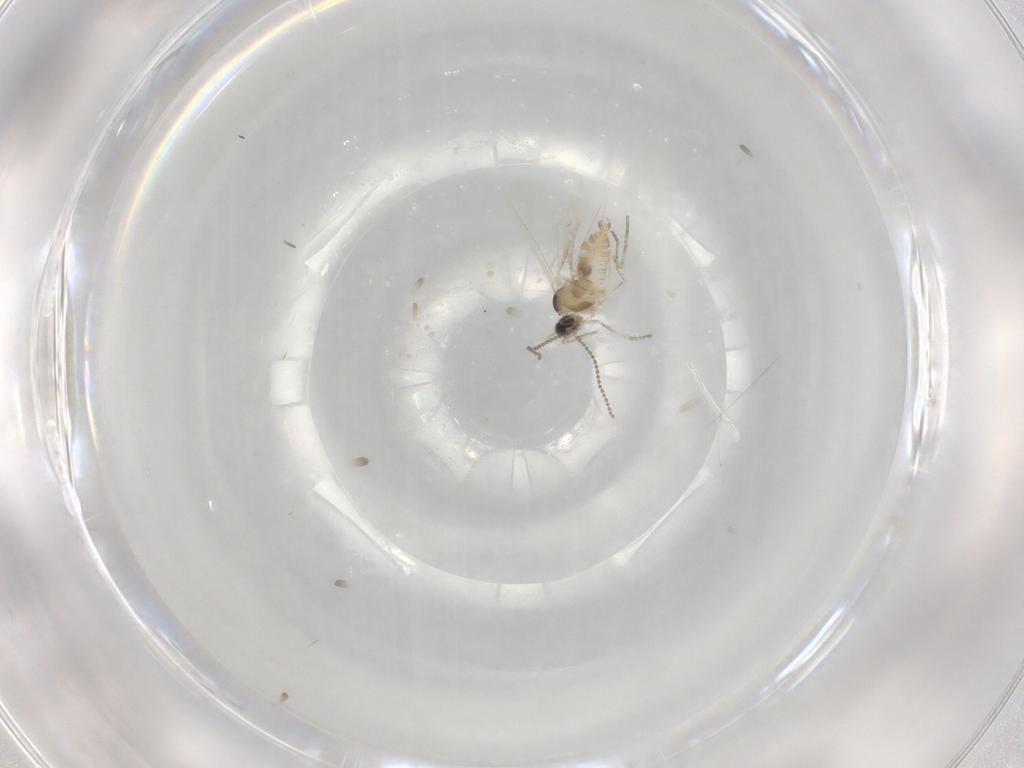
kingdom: Animalia
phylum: Arthropoda
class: Insecta
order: Diptera
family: Cecidomyiidae
